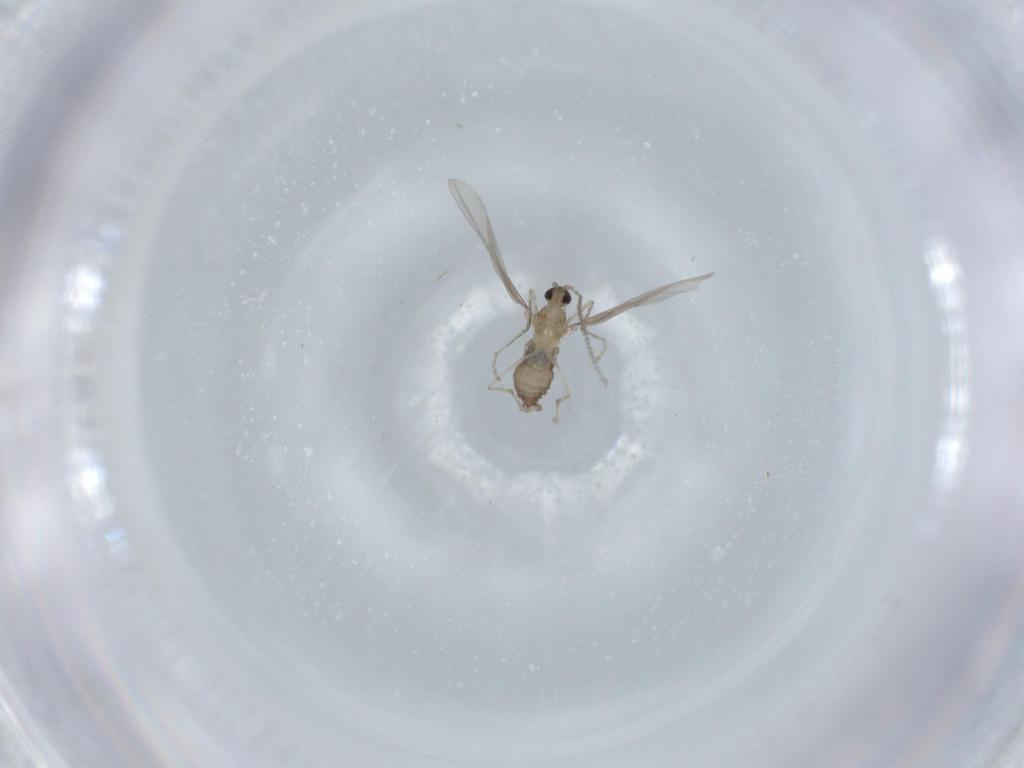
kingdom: Animalia
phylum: Arthropoda
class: Insecta
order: Diptera
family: Cecidomyiidae
